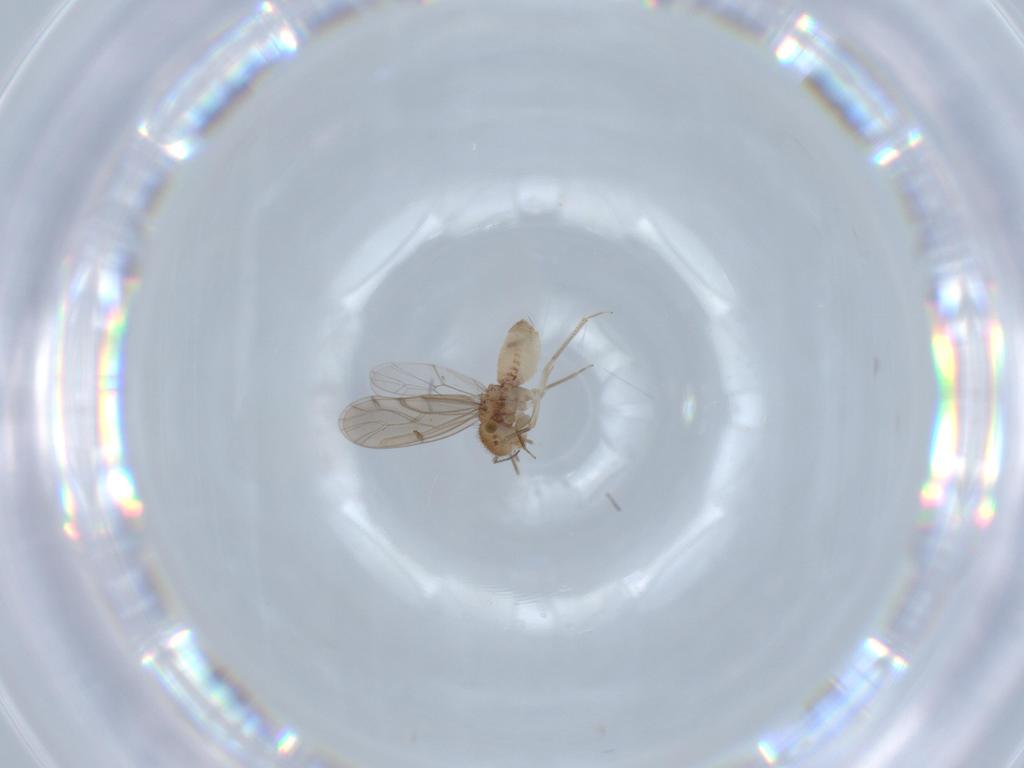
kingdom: Animalia
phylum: Arthropoda
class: Insecta
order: Psocodea
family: Ectopsocidae
